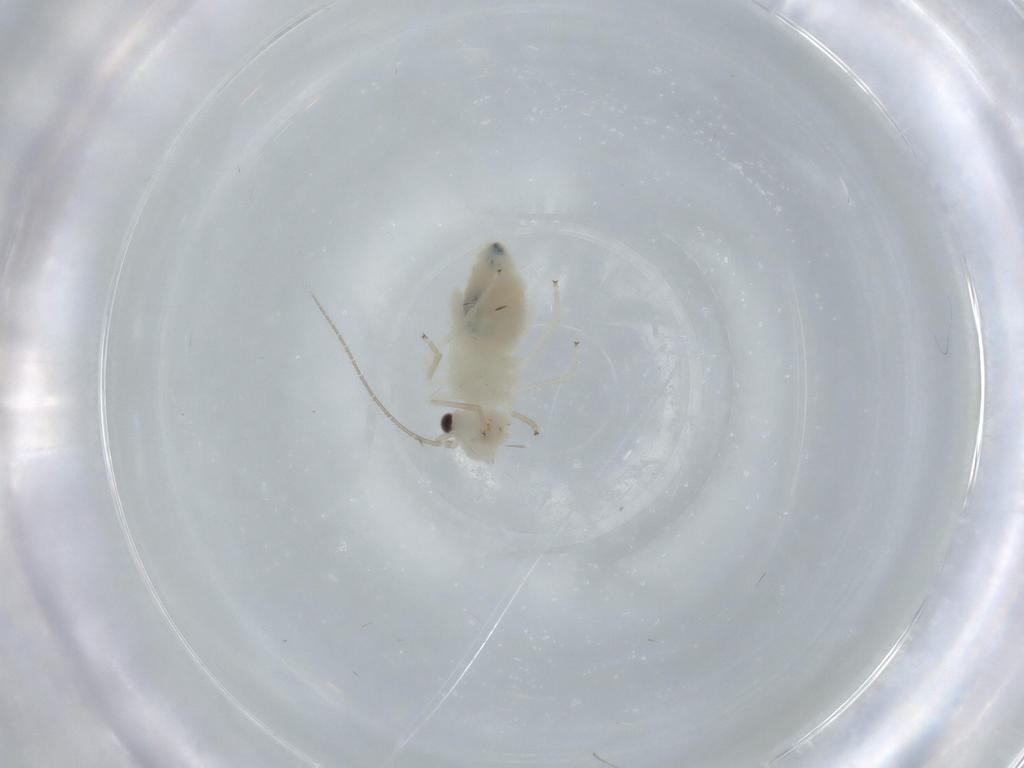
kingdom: Animalia
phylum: Arthropoda
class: Insecta
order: Psocodea
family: Caeciliusidae
